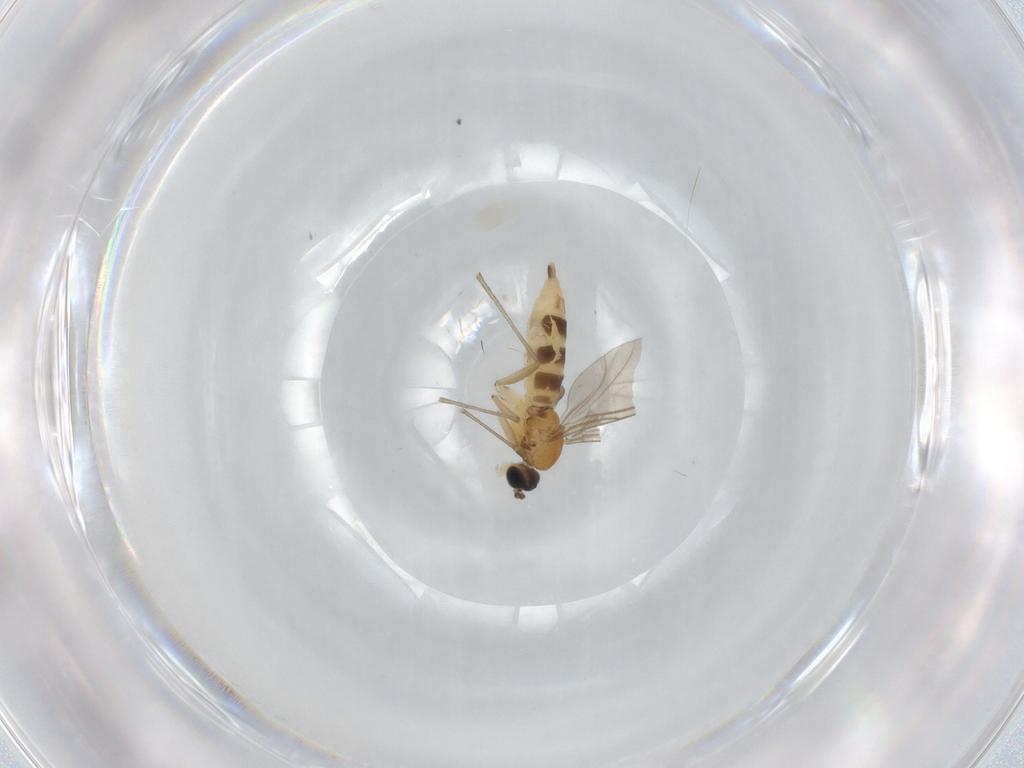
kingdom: Animalia
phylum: Arthropoda
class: Insecta
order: Diptera
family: Sciaridae
